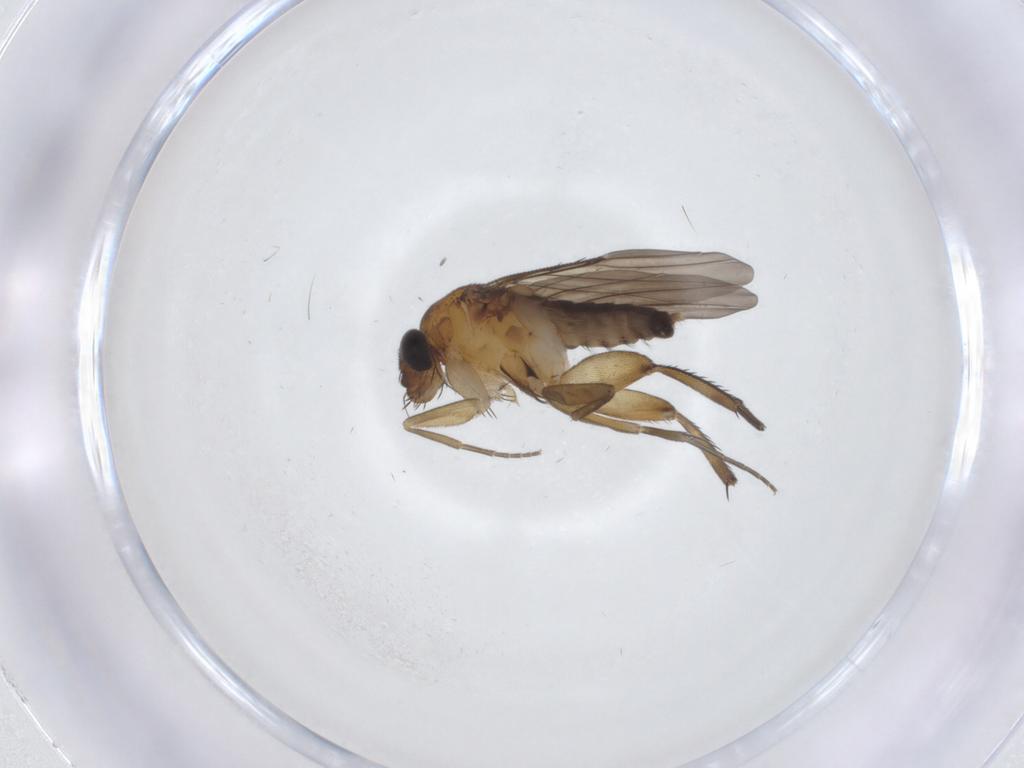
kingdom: Animalia
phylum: Arthropoda
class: Insecta
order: Diptera
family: Phoridae
